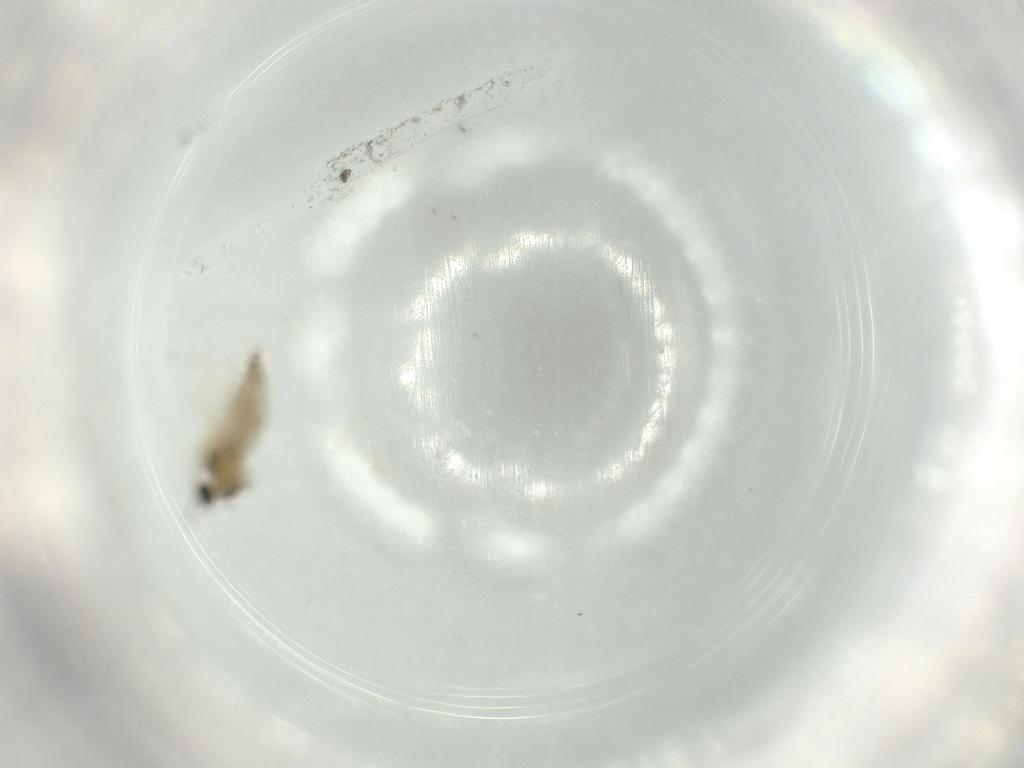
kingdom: Animalia
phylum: Arthropoda
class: Insecta
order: Diptera
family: Cecidomyiidae
